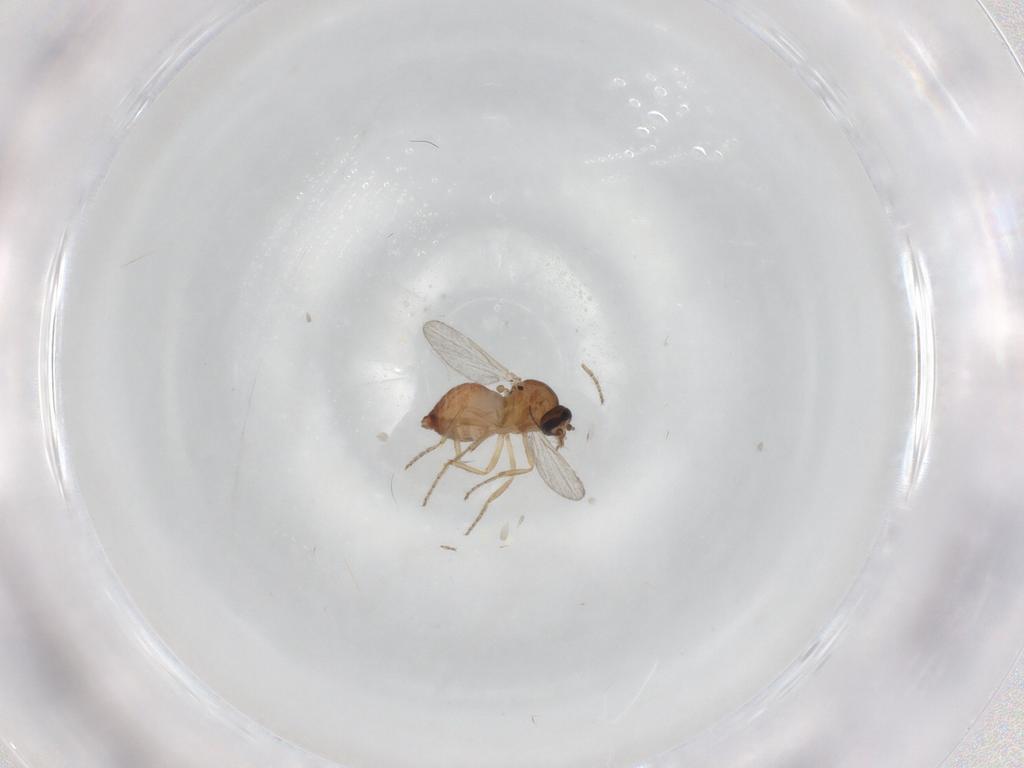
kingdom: Animalia
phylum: Arthropoda
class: Insecta
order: Diptera
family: Ceratopogonidae
